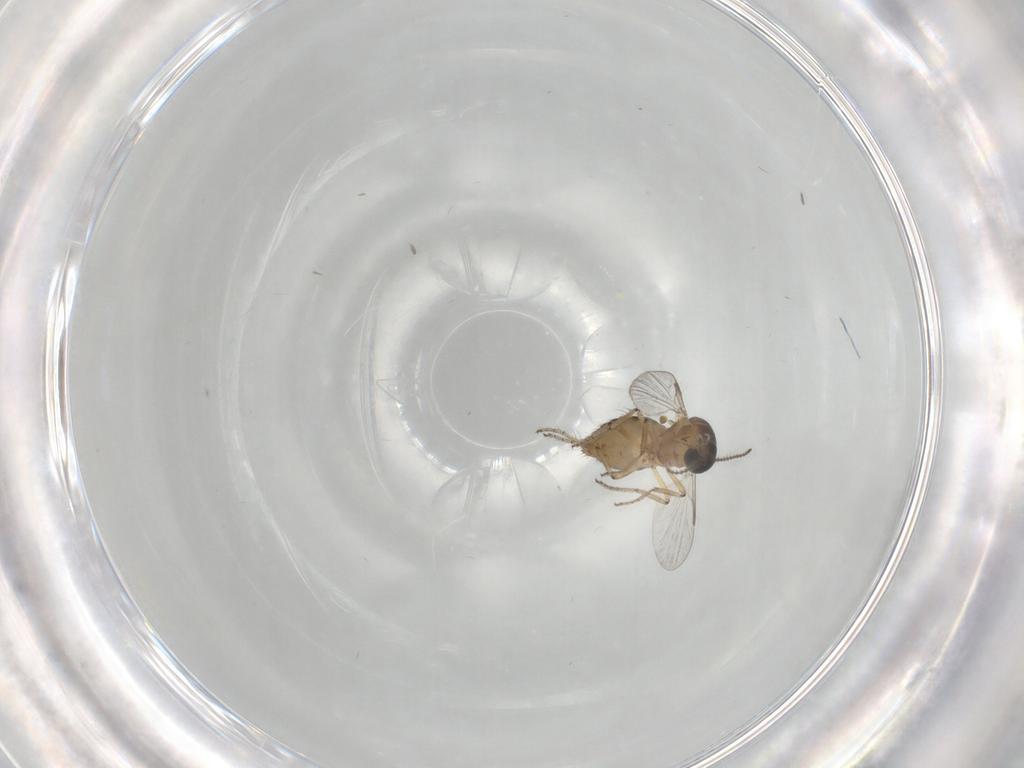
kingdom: Animalia
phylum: Arthropoda
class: Insecta
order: Diptera
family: Ceratopogonidae
